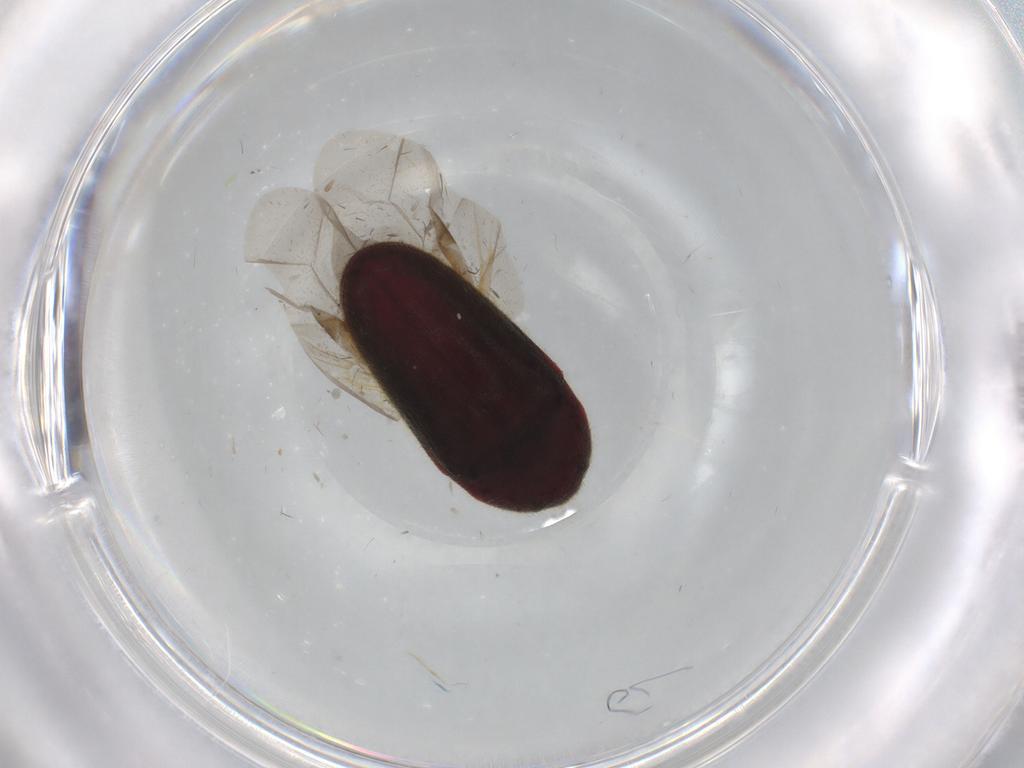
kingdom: Animalia
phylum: Arthropoda
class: Insecta
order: Coleoptera
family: Throscidae
